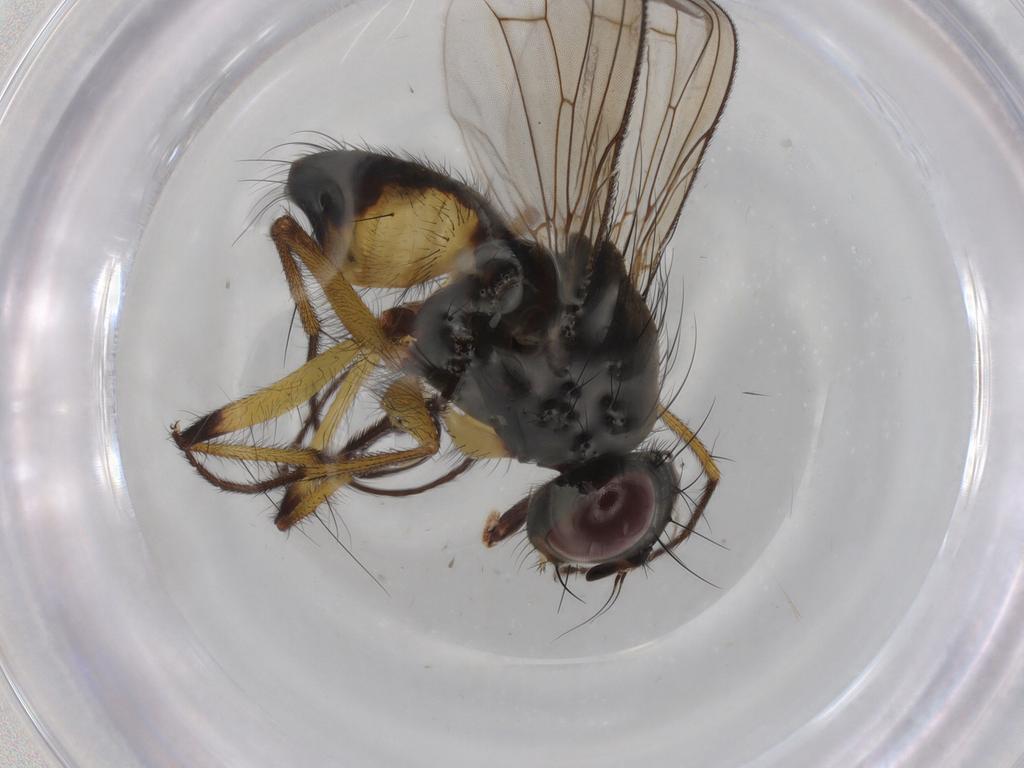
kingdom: Animalia
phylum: Arthropoda
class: Insecta
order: Diptera
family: Muscidae
